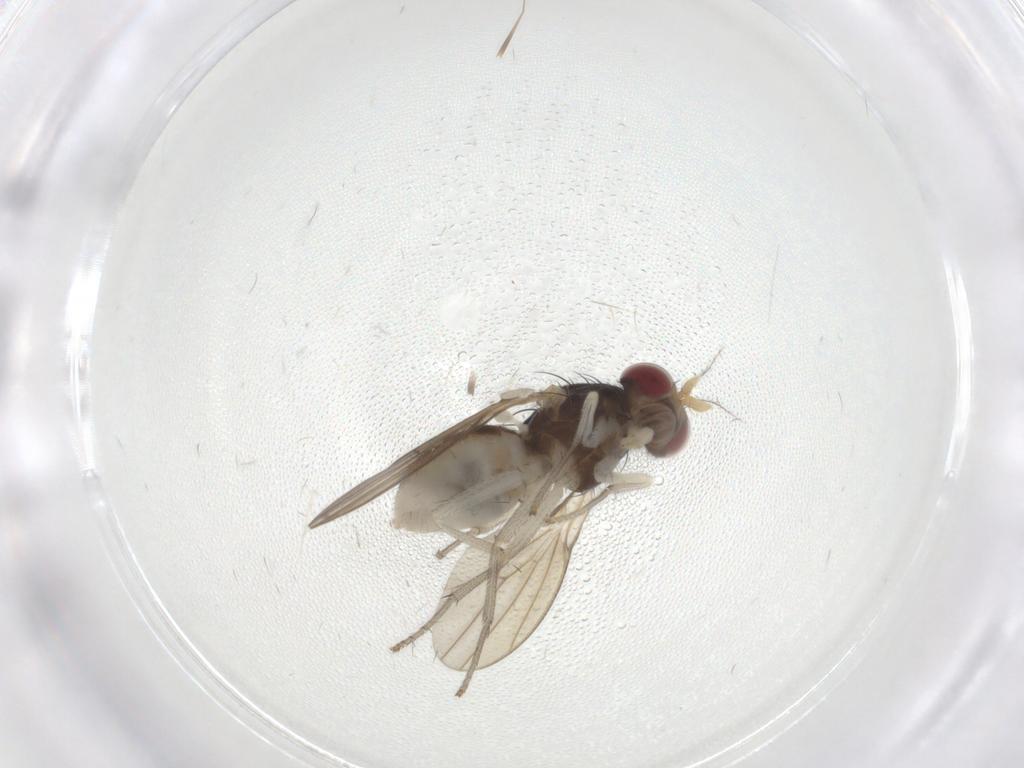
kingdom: Animalia
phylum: Arthropoda
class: Insecta
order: Diptera
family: Lauxaniidae
